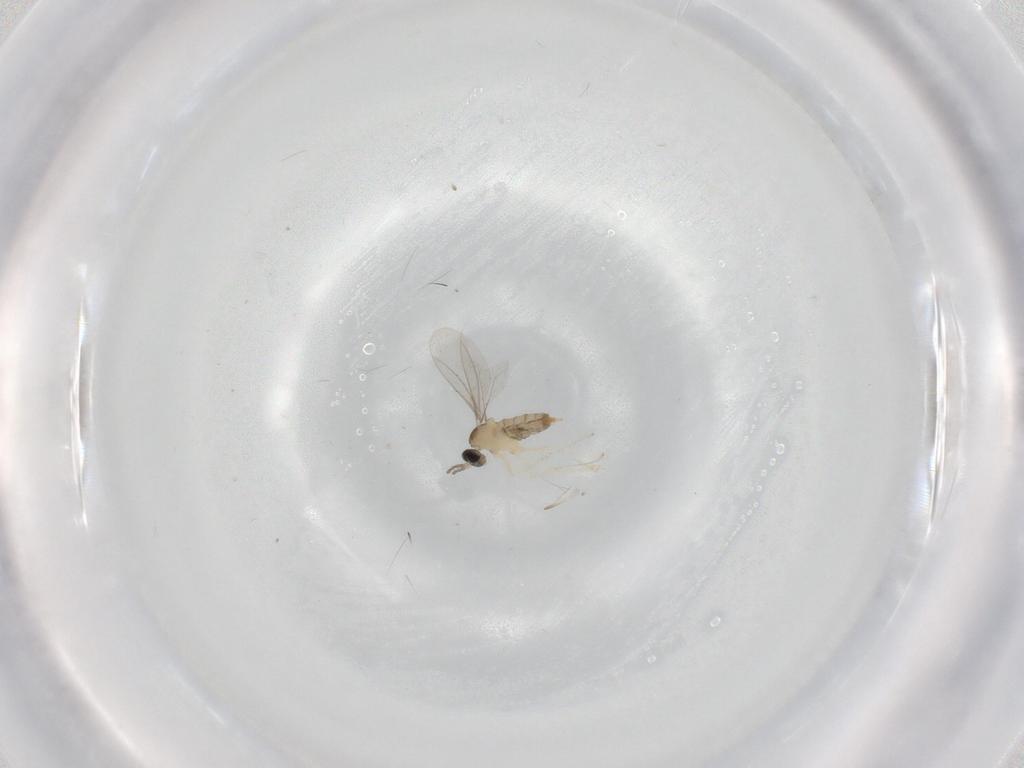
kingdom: Animalia
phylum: Arthropoda
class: Insecta
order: Diptera
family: Cecidomyiidae
